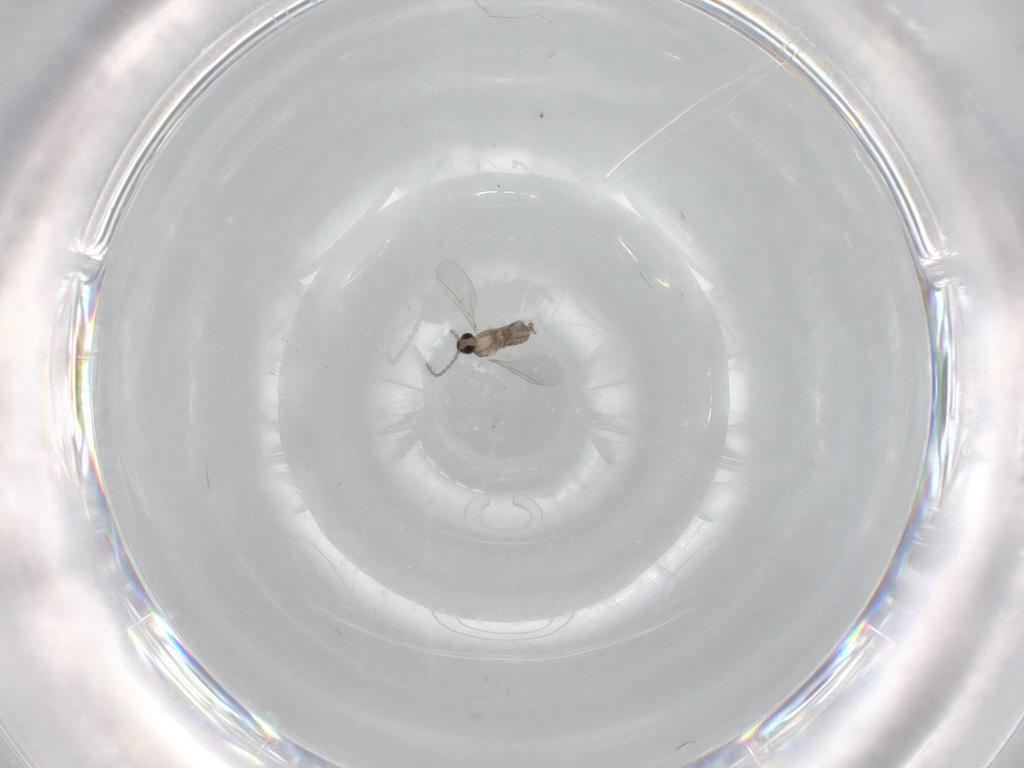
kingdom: Animalia
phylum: Arthropoda
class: Insecta
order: Diptera
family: Cecidomyiidae
